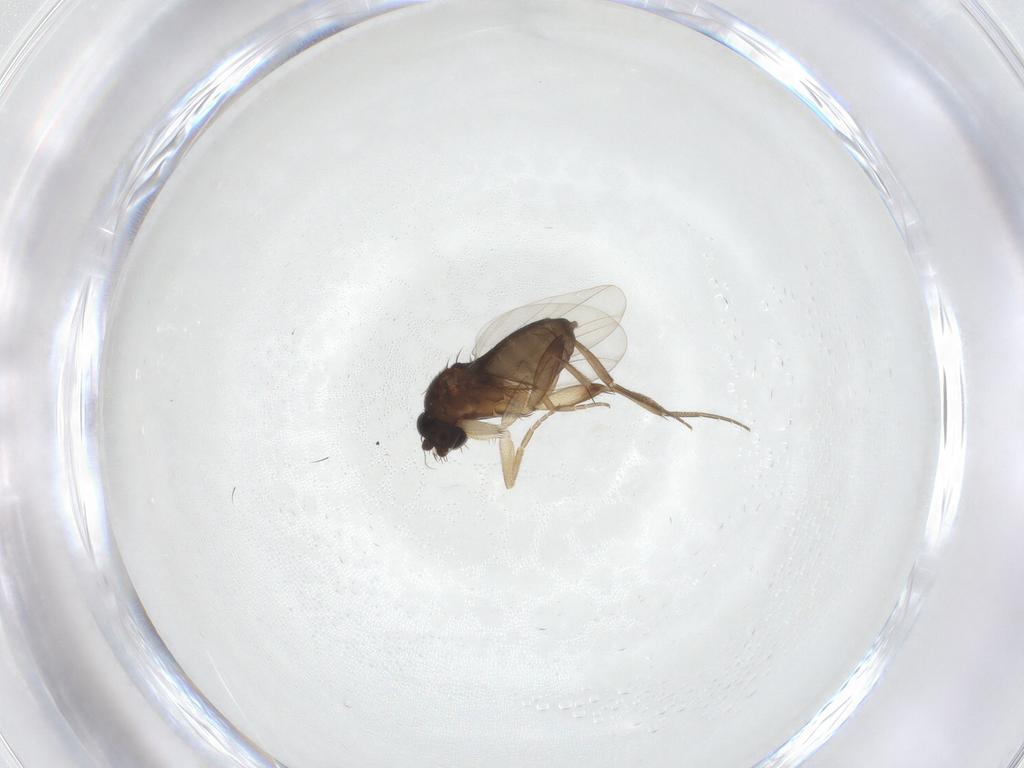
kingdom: Animalia
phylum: Arthropoda
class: Insecta
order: Diptera
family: Phoridae
